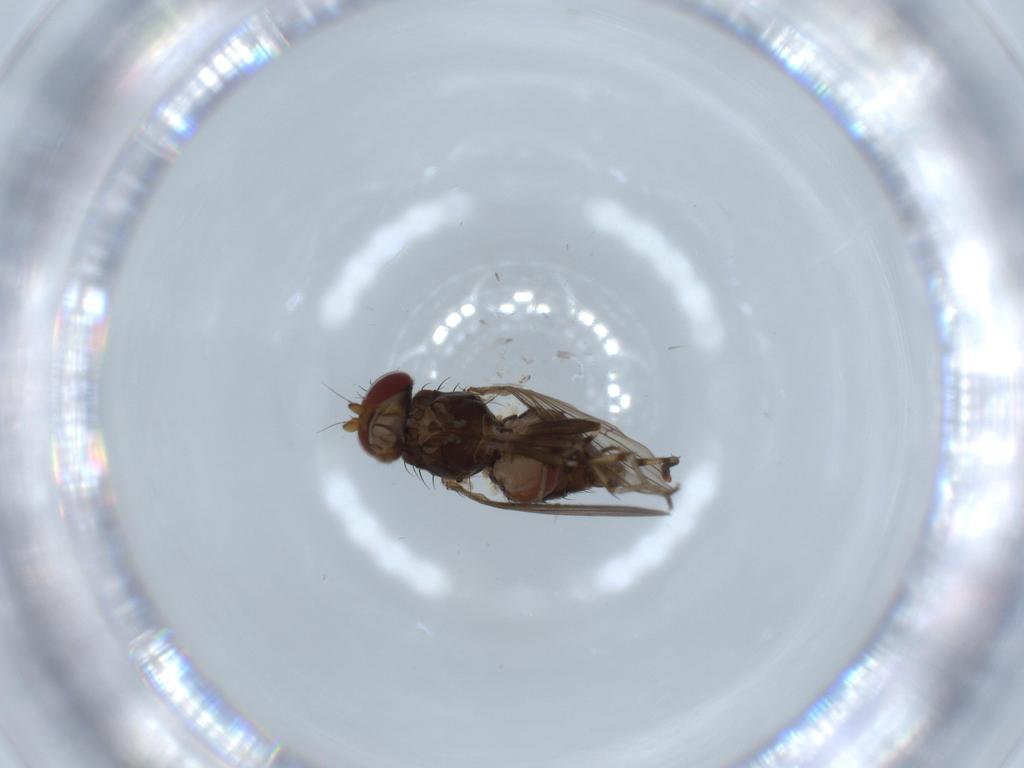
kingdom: Animalia
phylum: Arthropoda
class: Insecta
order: Diptera
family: Heleomyzidae
